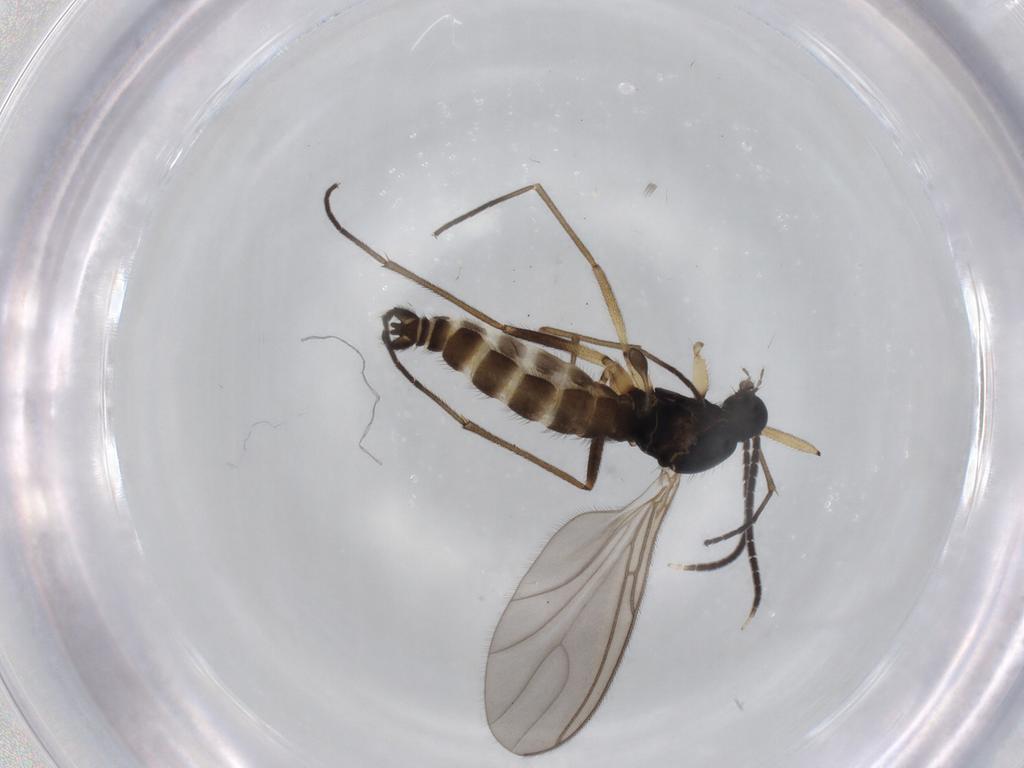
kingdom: Animalia
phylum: Arthropoda
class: Insecta
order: Diptera
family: Sciaridae
